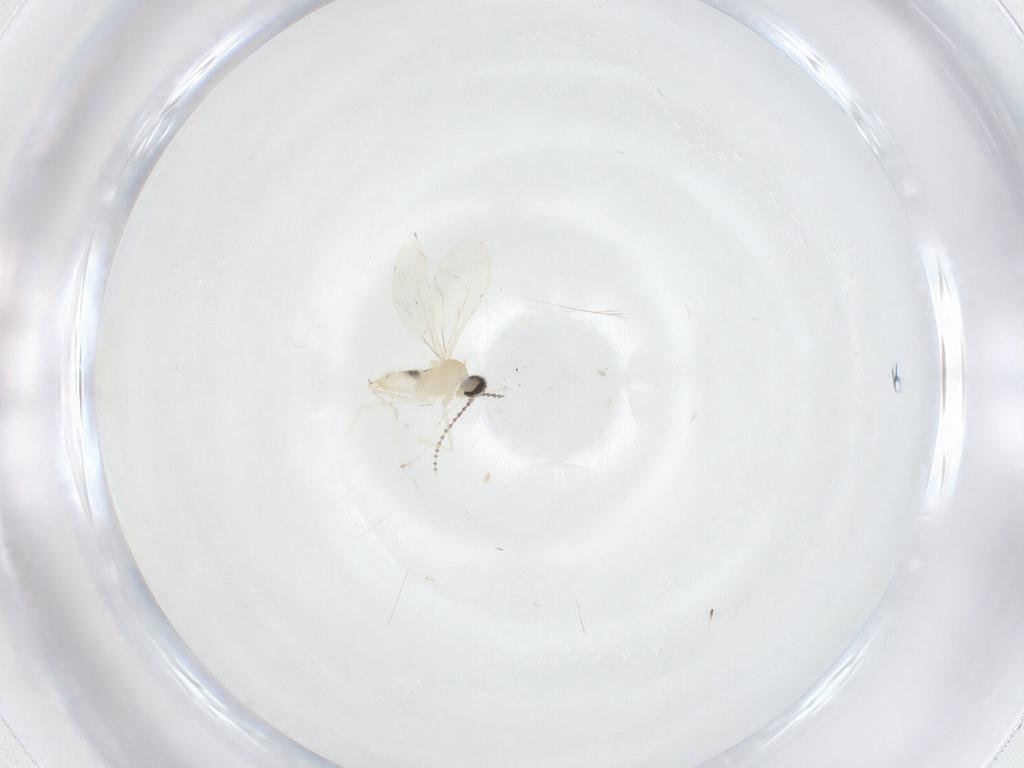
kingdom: Animalia
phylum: Arthropoda
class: Insecta
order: Diptera
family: Cecidomyiidae
